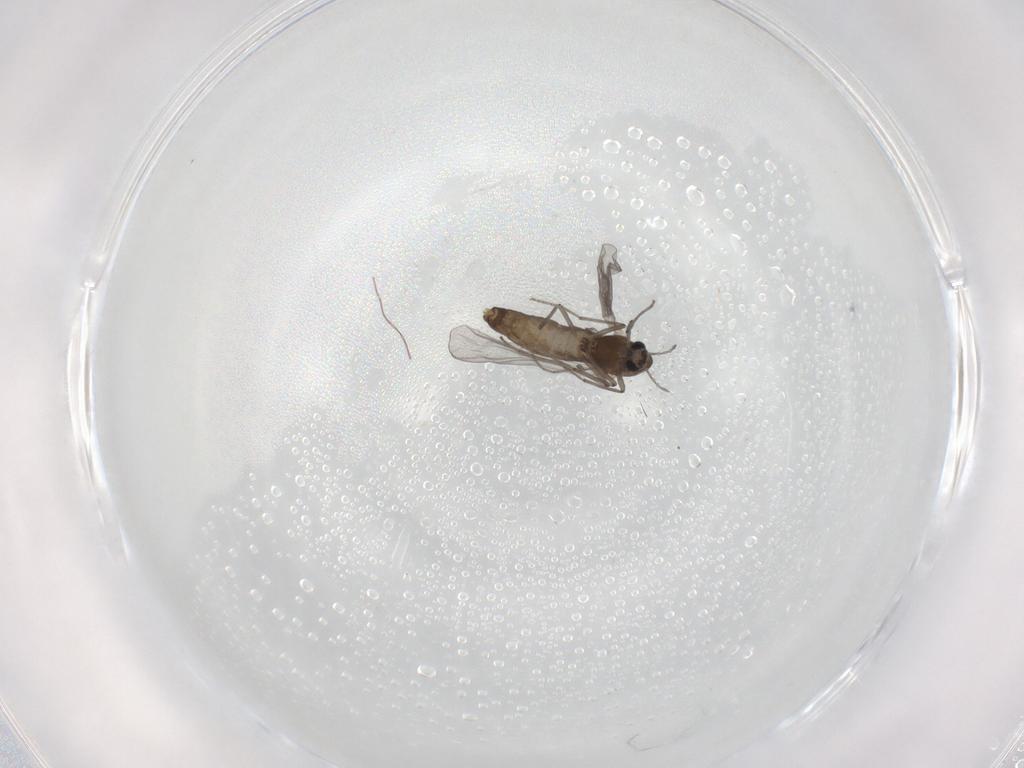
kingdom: Animalia
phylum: Arthropoda
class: Insecta
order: Diptera
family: Chironomidae
